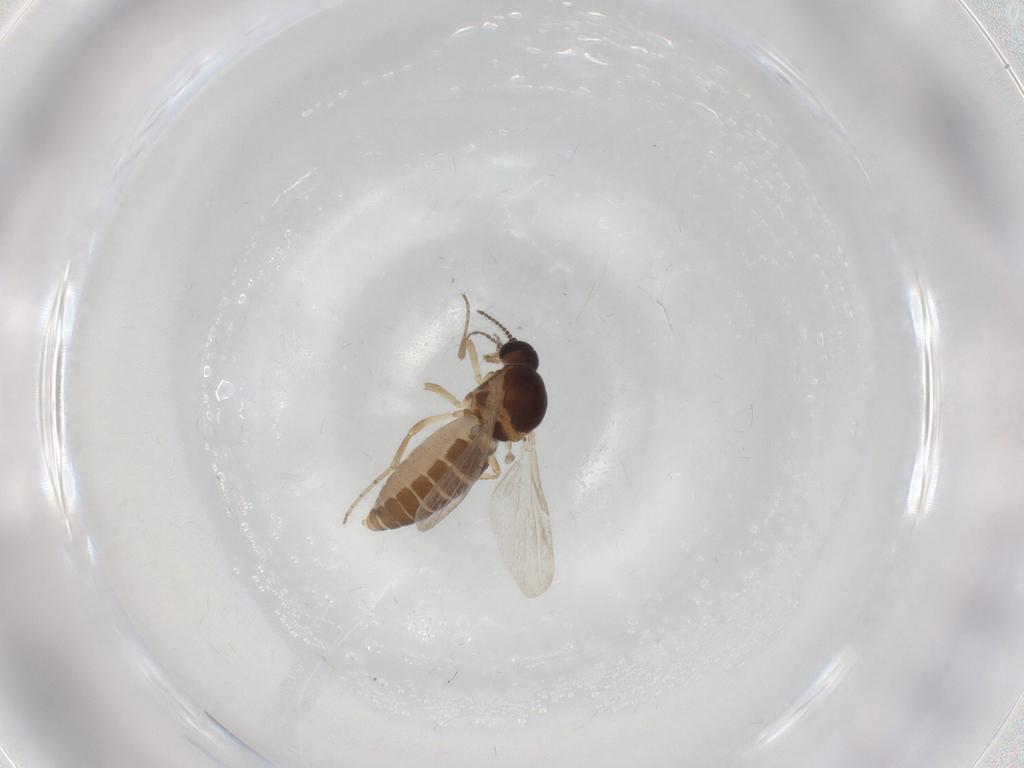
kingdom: Animalia
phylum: Arthropoda
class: Insecta
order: Diptera
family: Ceratopogonidae
